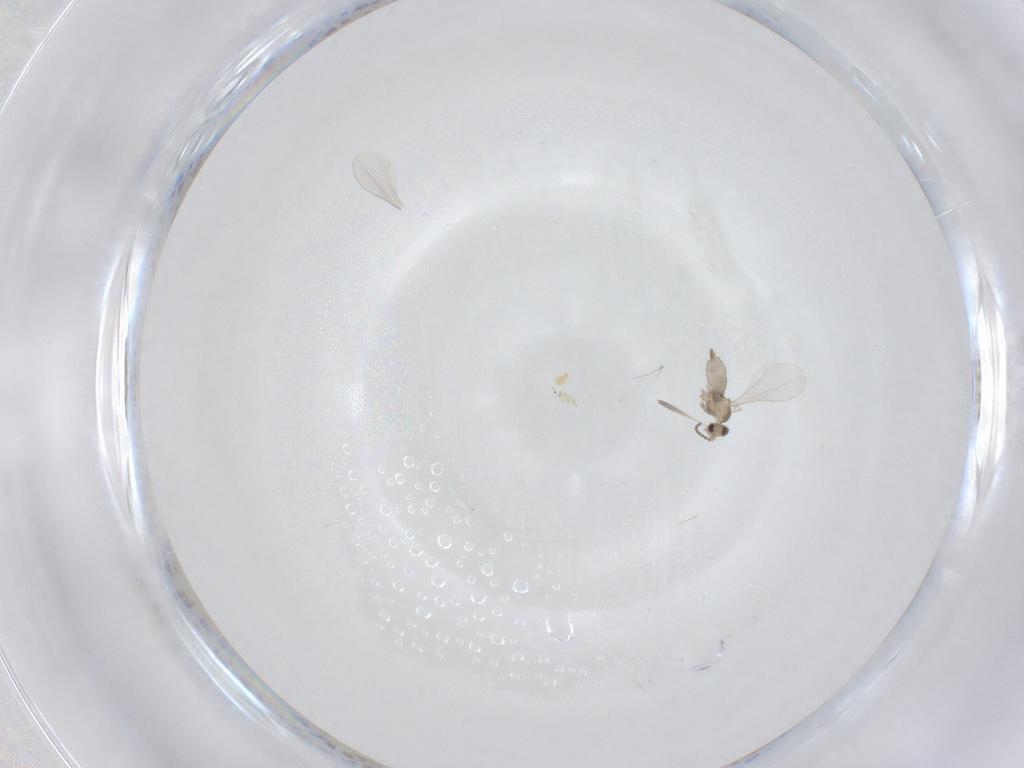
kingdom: Animalia
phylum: Arthropoda
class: Insecta
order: Diptera
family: Cecidomyiidae
